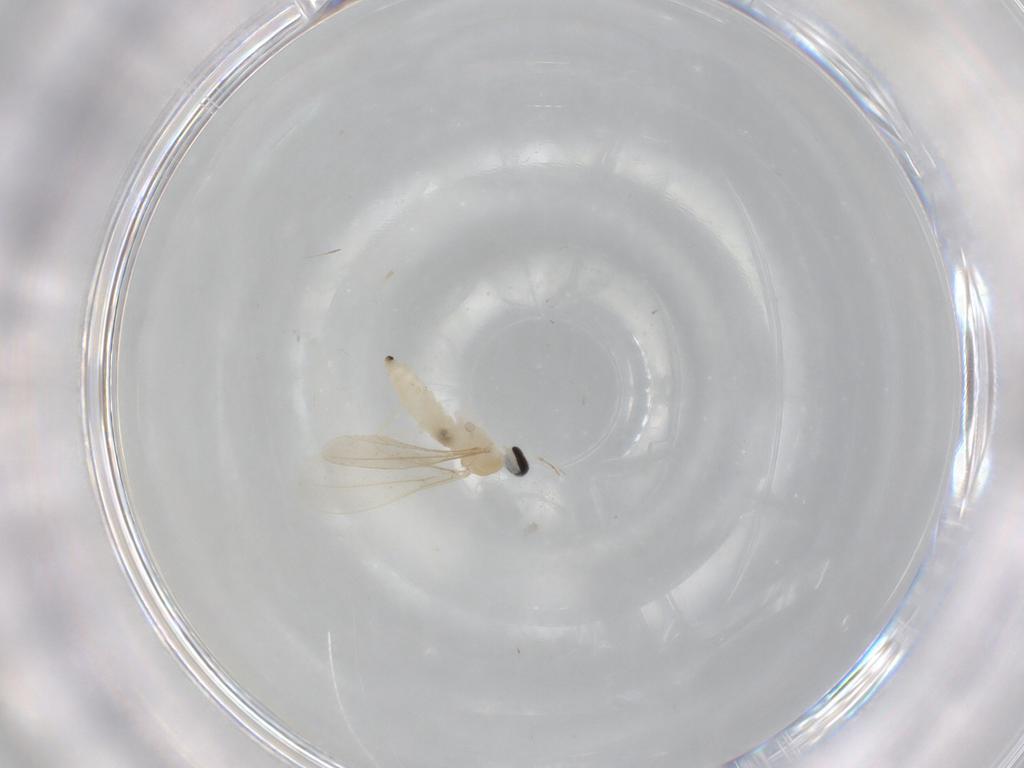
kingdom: Animalia
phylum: Arthropoda
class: Insecta
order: Diptera
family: Cecidomyiidae
